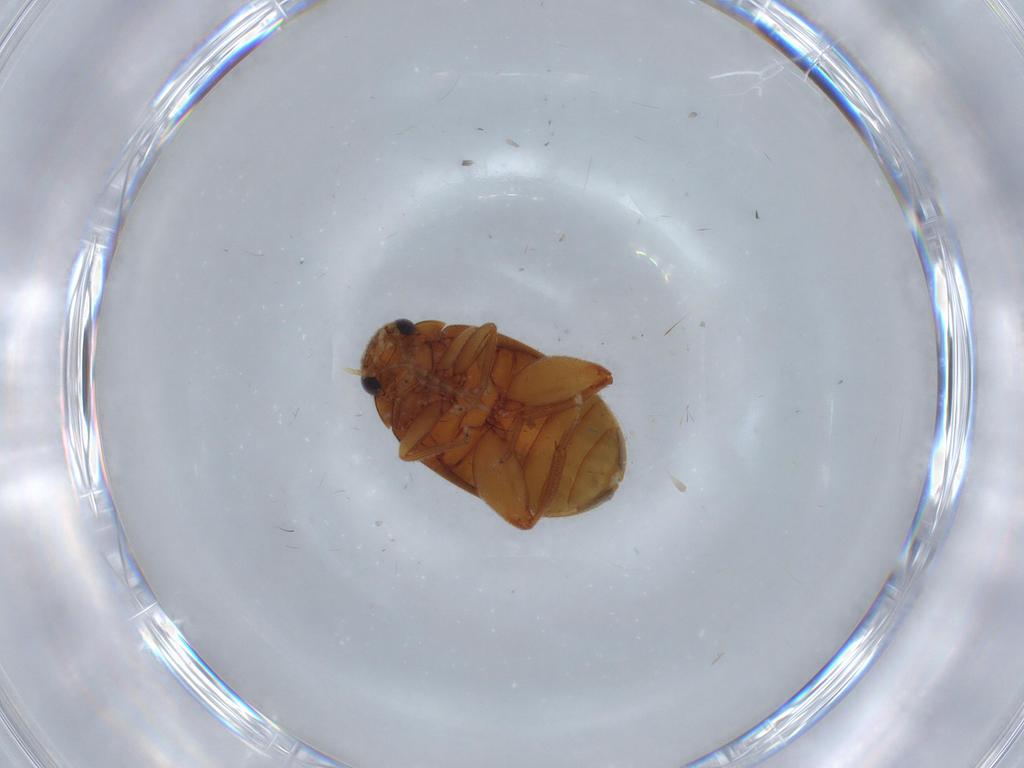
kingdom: Animalia
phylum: Arthropoda
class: Insecta
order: Coleoptera
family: Scirtidae
